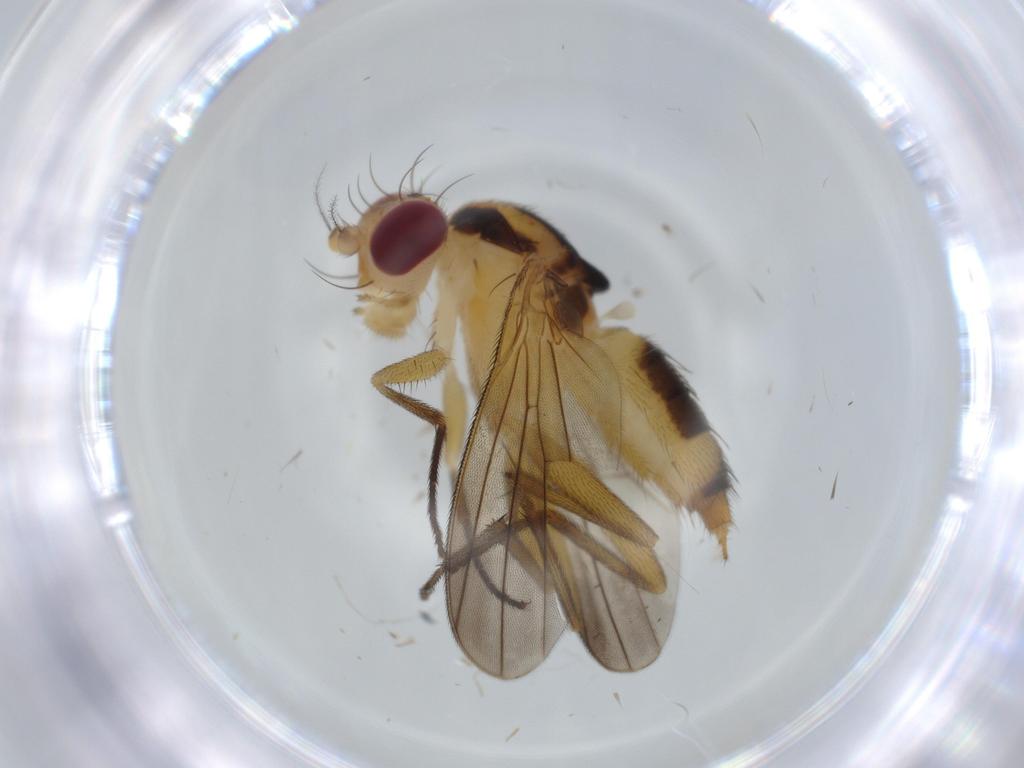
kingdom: Animalia
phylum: Arthropoda
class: Insecta
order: Diptera
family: Clusiidae
